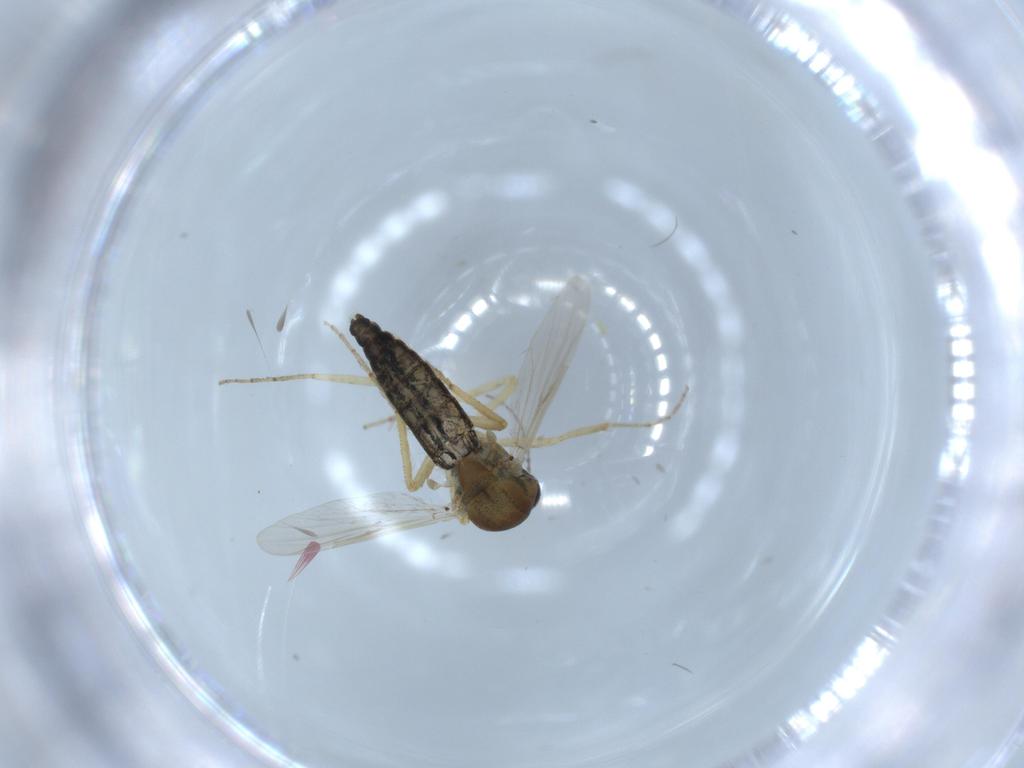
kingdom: Animalia
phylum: Arthropoda
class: Insecta
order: Diptera
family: Ceratopogonidae
